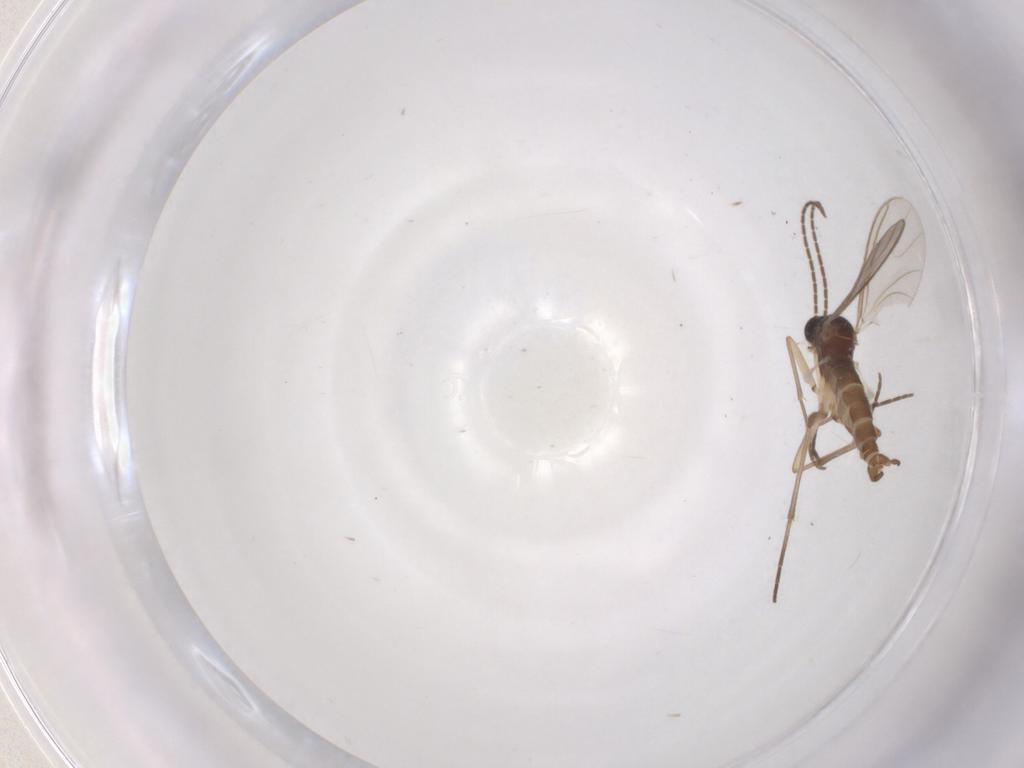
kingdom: Animalia
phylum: Arthropoda
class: Insecta
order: Diptera
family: Sciaridae
